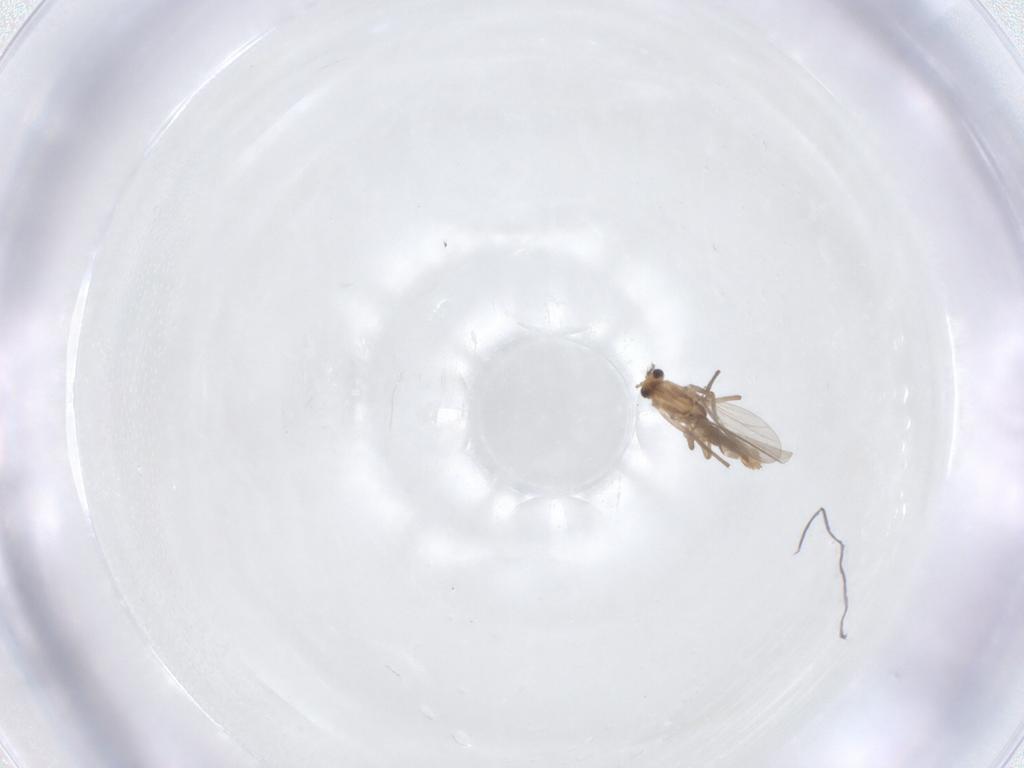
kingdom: Animalia
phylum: Arthropoda
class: Insecta
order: Diptera
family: Chironomidae
